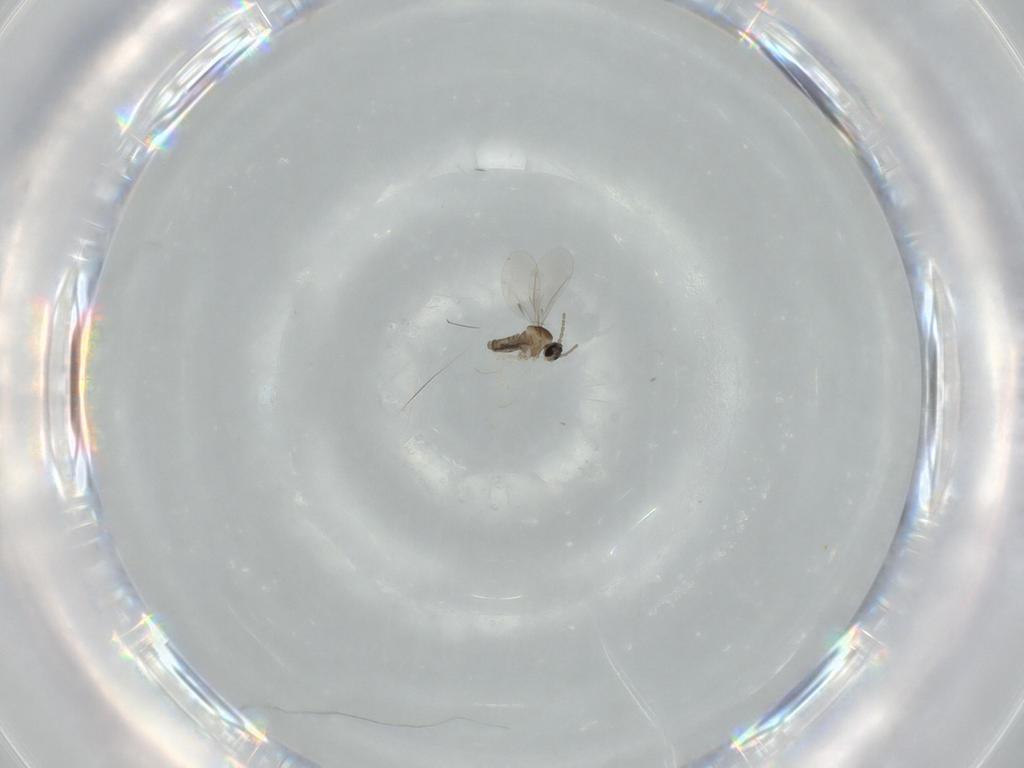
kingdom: Animalia
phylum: Arthropoda
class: Insecta
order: Diptera
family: Cecidomyiidae
